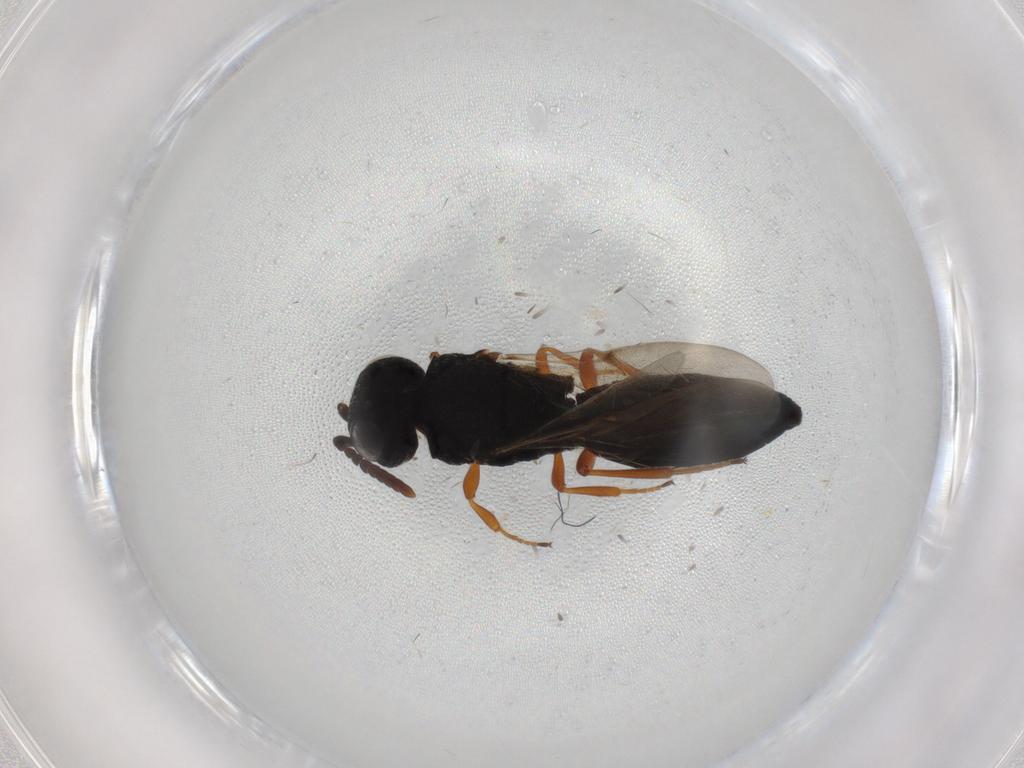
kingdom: Animalia
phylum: Arthropoda
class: Insecta
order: Hymenoptera
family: Scelionidae
